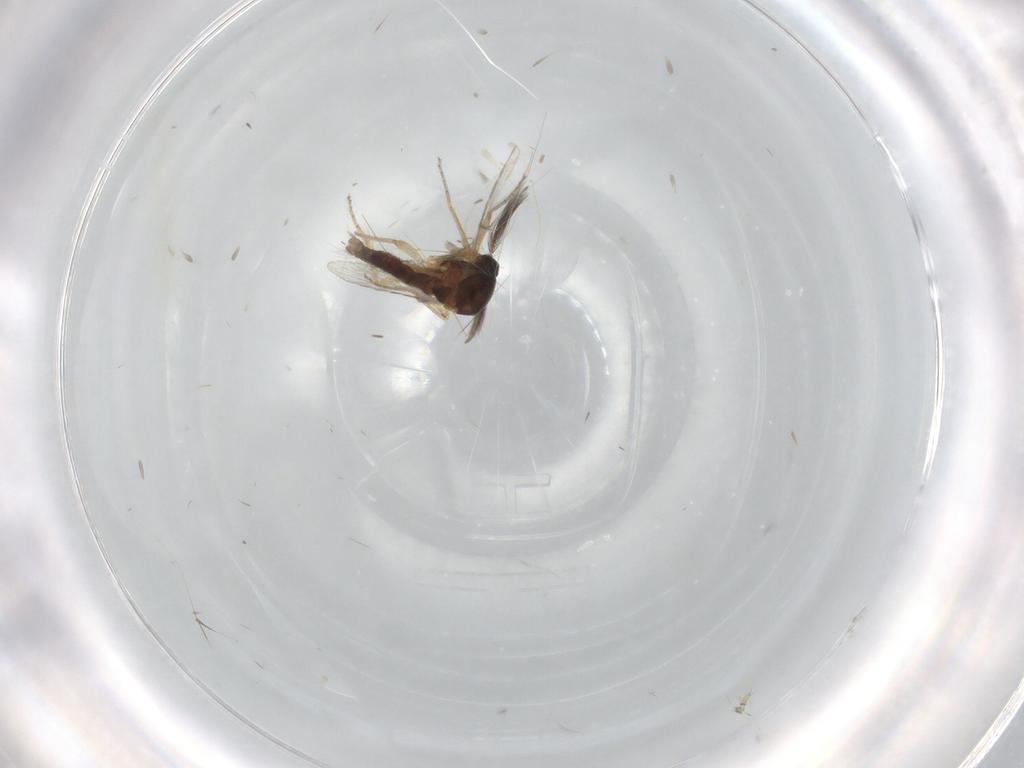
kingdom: Animalia
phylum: Arthropoda
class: Insecta
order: Diptera
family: Ceratopogonidae
